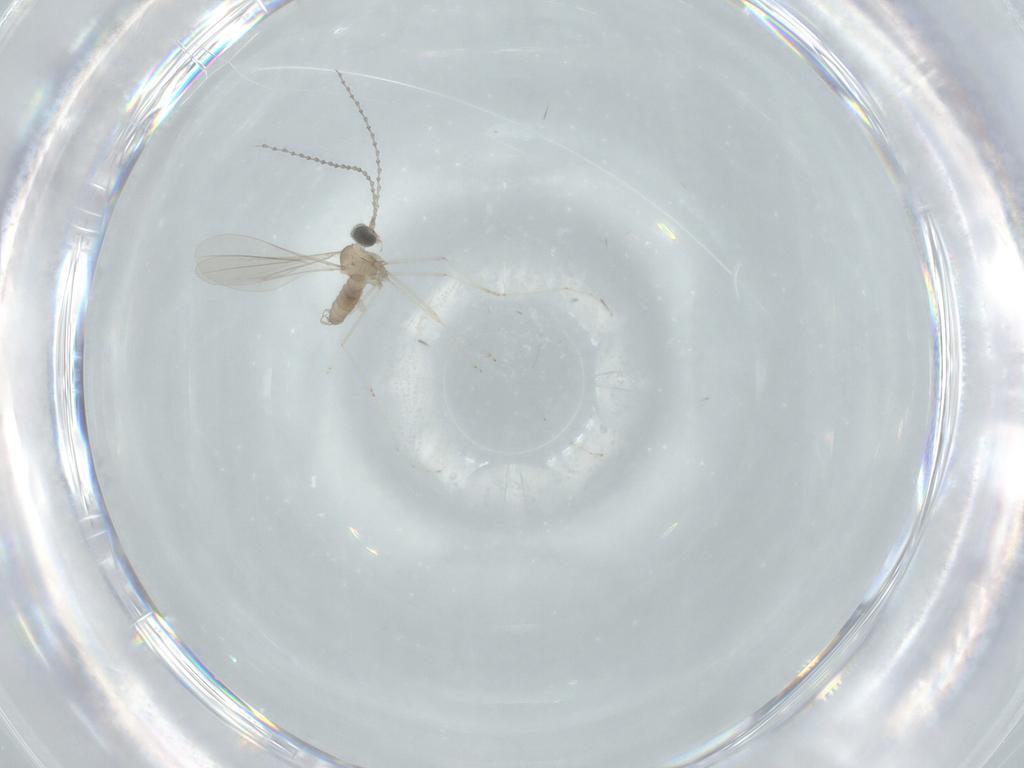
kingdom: Animalia
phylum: Arthropoda
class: Insecta
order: Diptera
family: Cecidomyiidae
